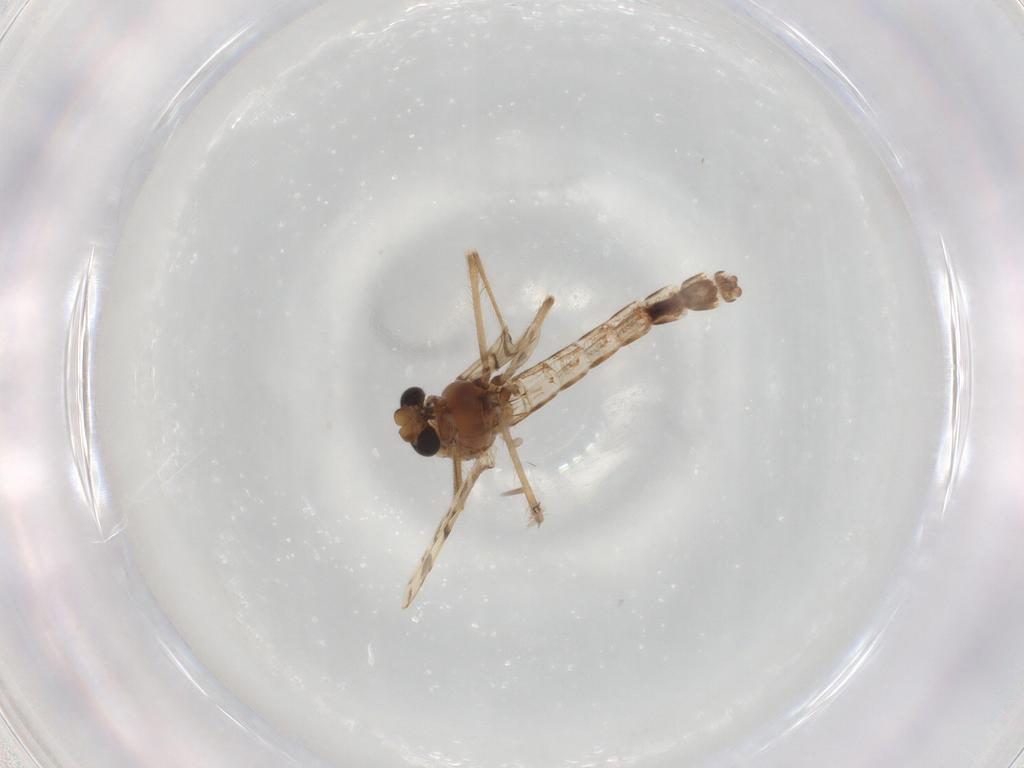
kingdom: Animalia
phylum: Arthropoda
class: Insecta
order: Diptera
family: Chironomidae
